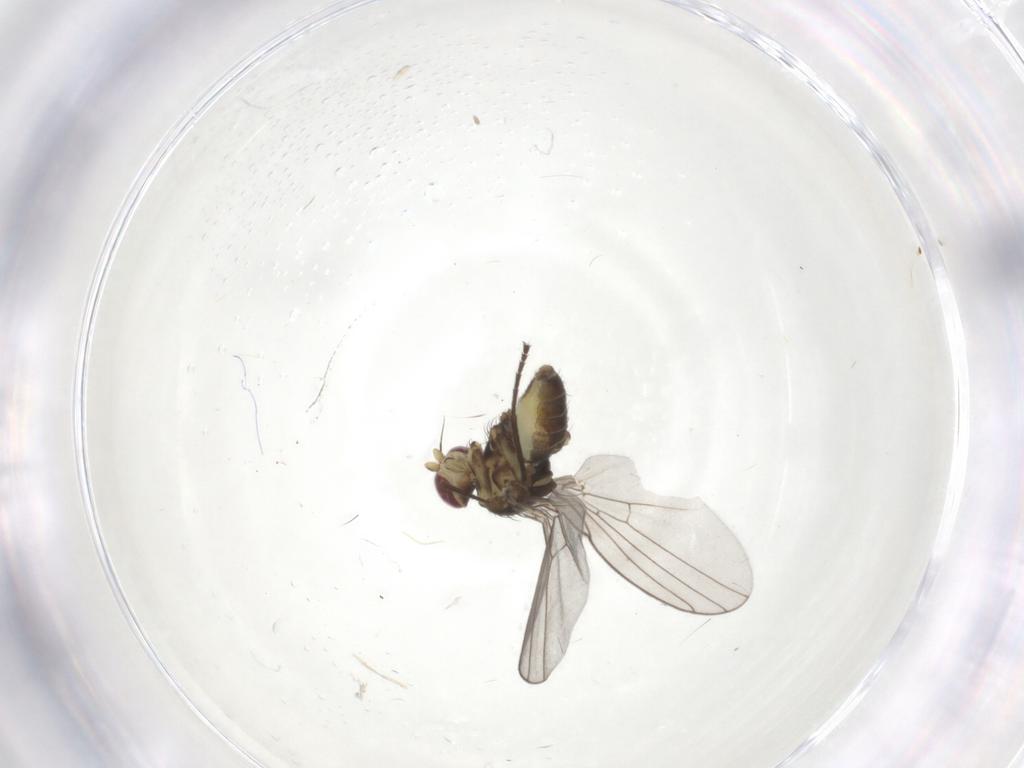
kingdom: Animalia
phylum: Arthropoda
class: Insecta
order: Diptera
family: Agromyzidae
